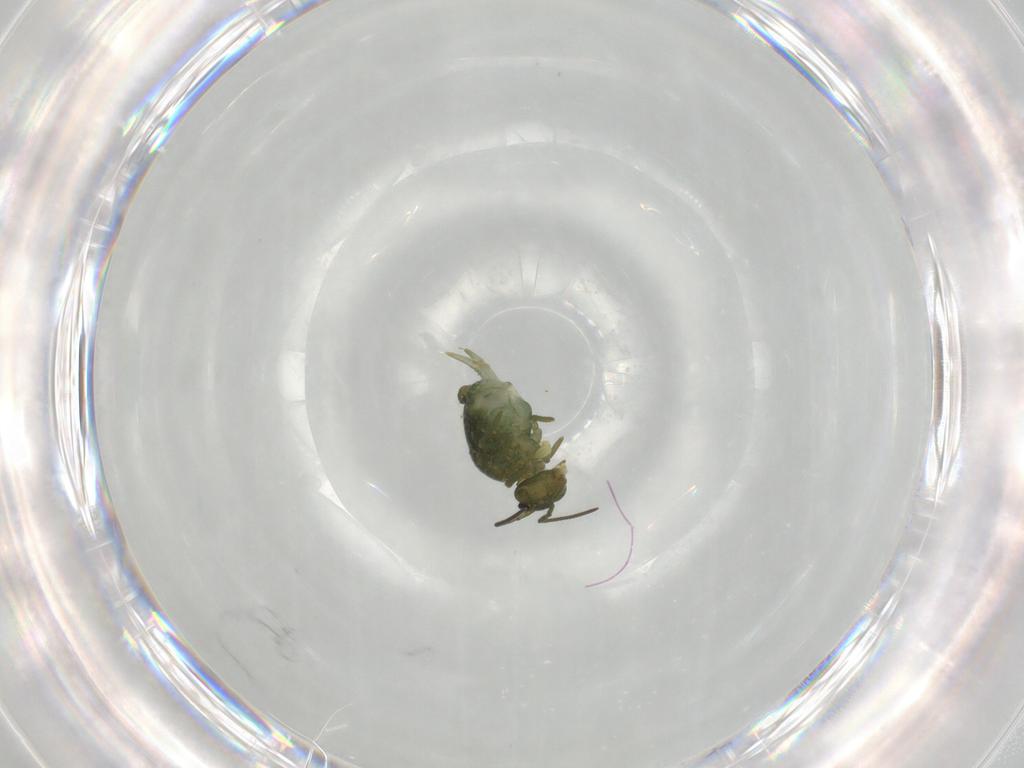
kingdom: Animalia
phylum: Arthropoda
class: Collembola
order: Symphypleona
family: Sminthuridae
